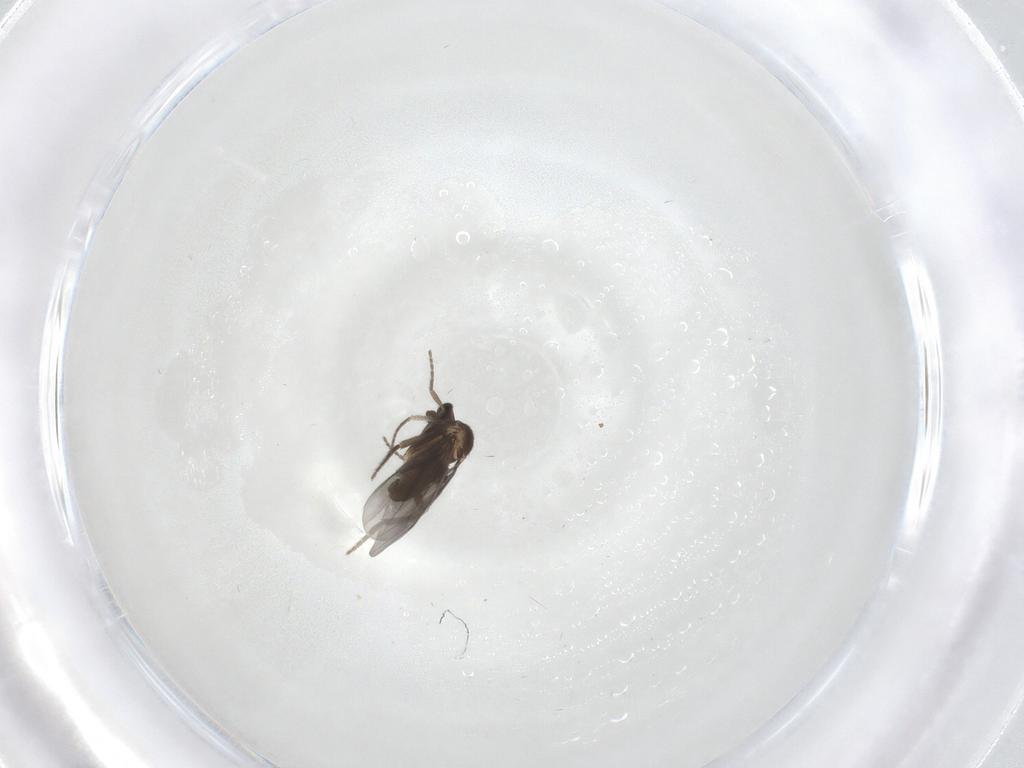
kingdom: Animalia
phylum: Arthropoda
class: Insecta
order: Diptera
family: Phoridae
